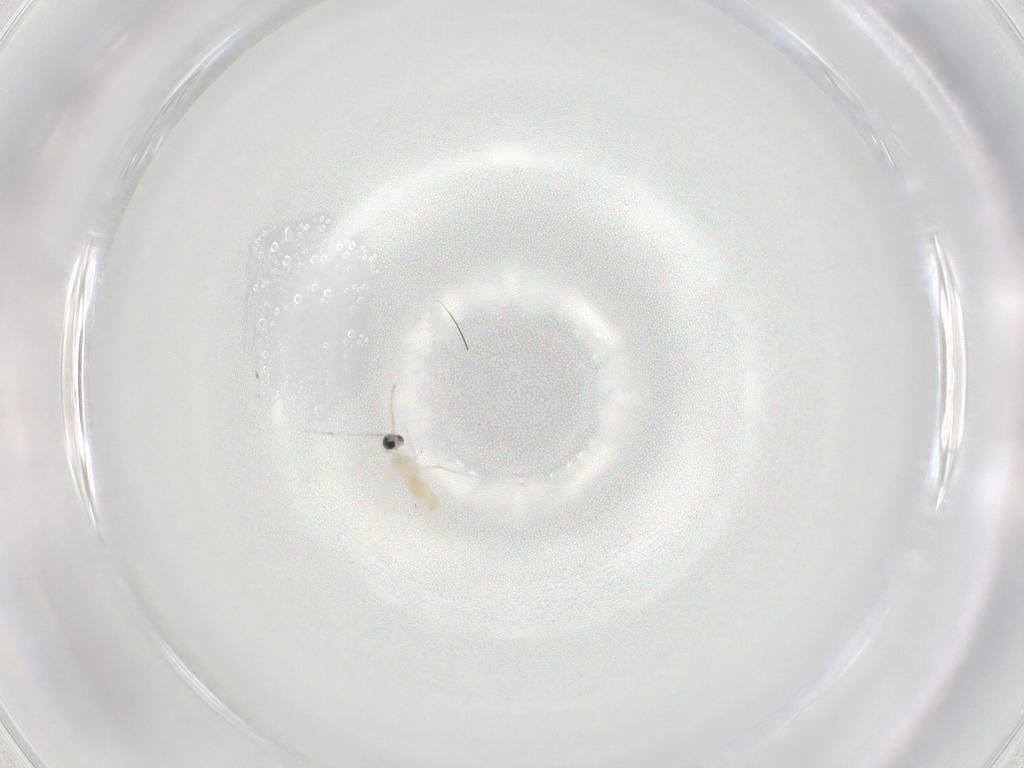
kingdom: Animalia
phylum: Arthropoda
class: Insecta
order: Diptera
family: Cecidomyiidae
